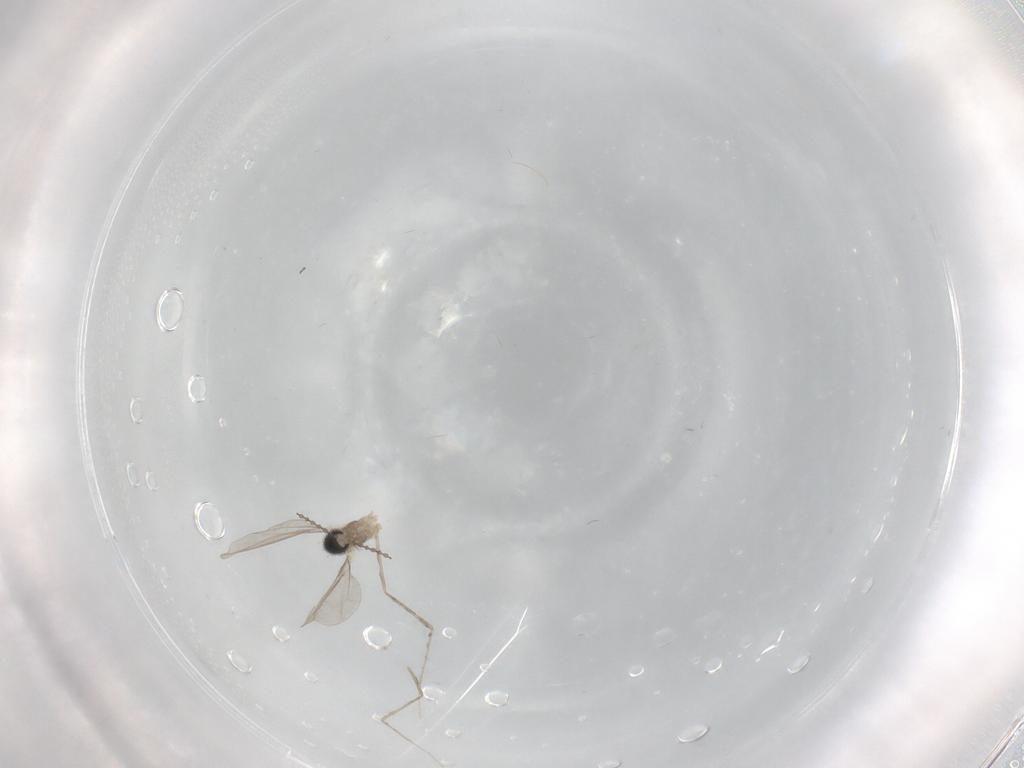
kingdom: Animalia
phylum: Arthropoda
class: Insecta
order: Diptera
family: Cecidomyiidae
